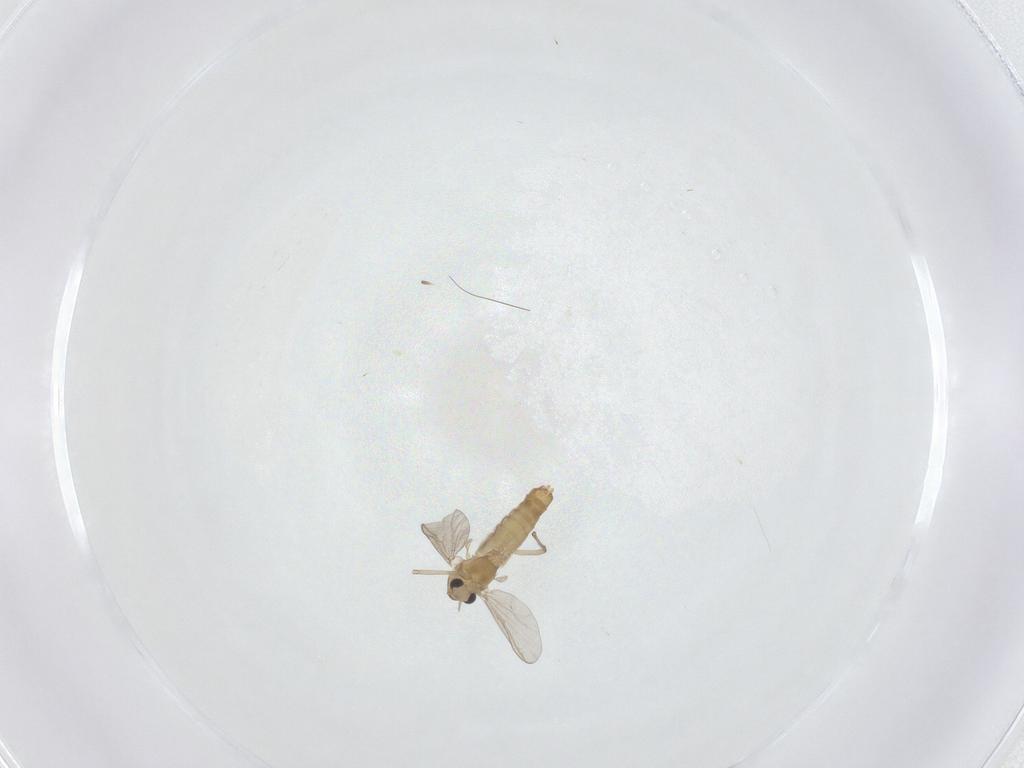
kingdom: Animalia
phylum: Arthropoda
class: Insecta
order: Diptera
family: Chironomidae
